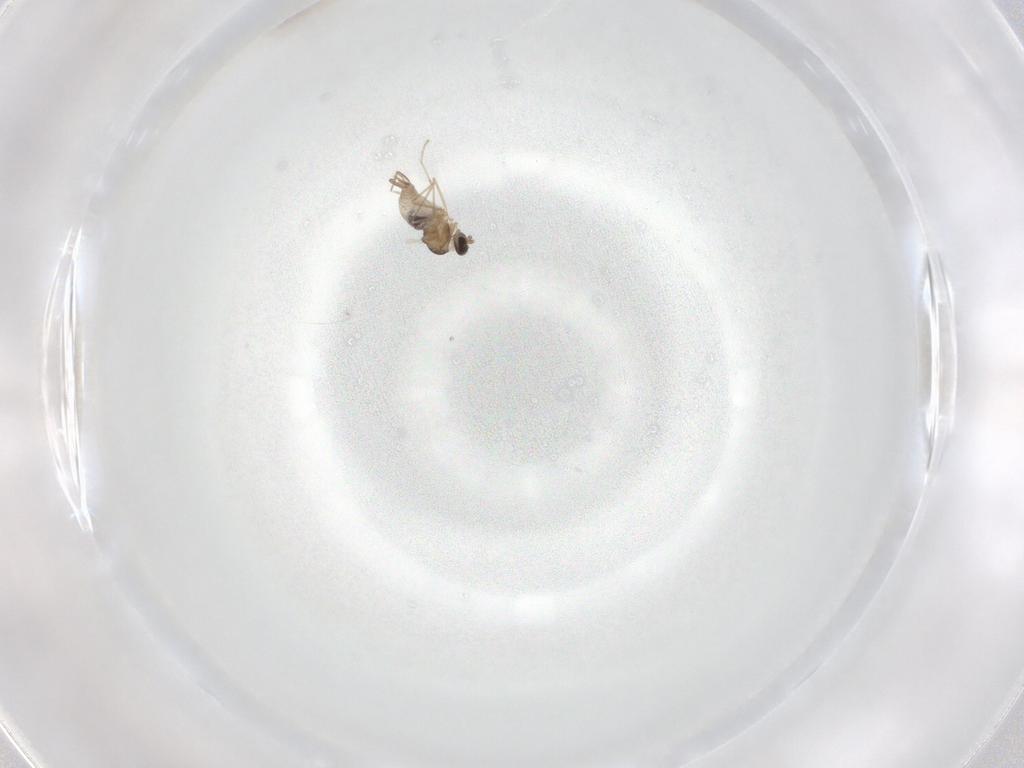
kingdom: Animalia
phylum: Arthropoda
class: Insecta
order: Diptera
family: Cecidomyiidae
